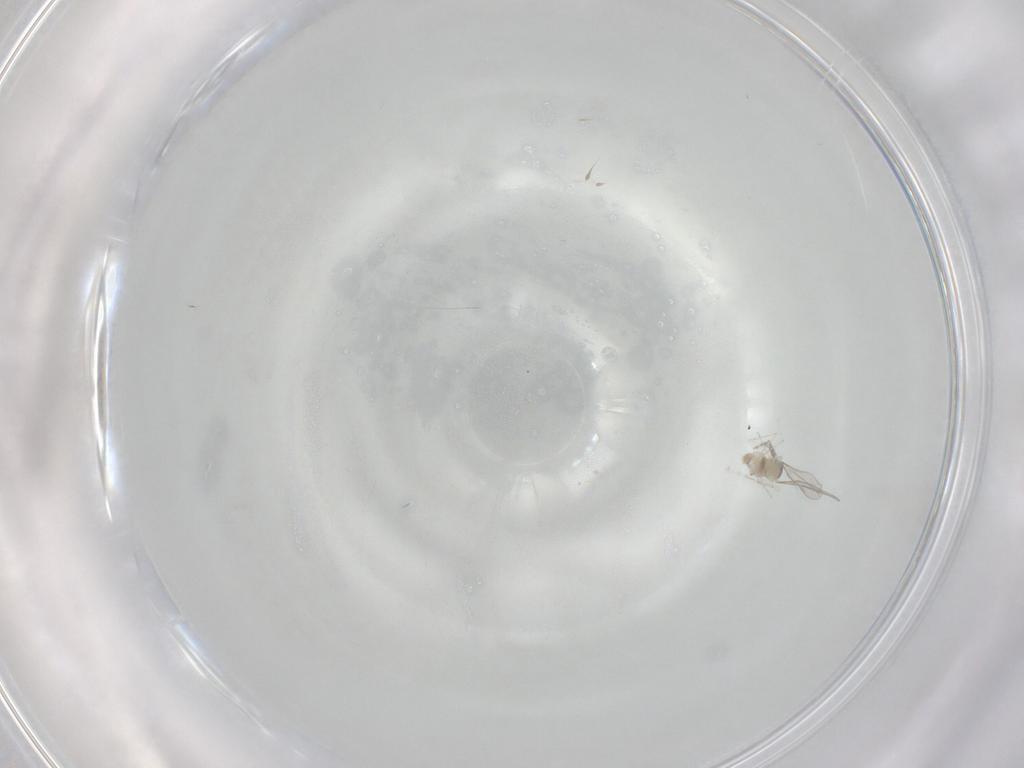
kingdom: Animalia
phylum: Arthropoda
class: Insecta
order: Diptera
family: Cecidomyiidae
